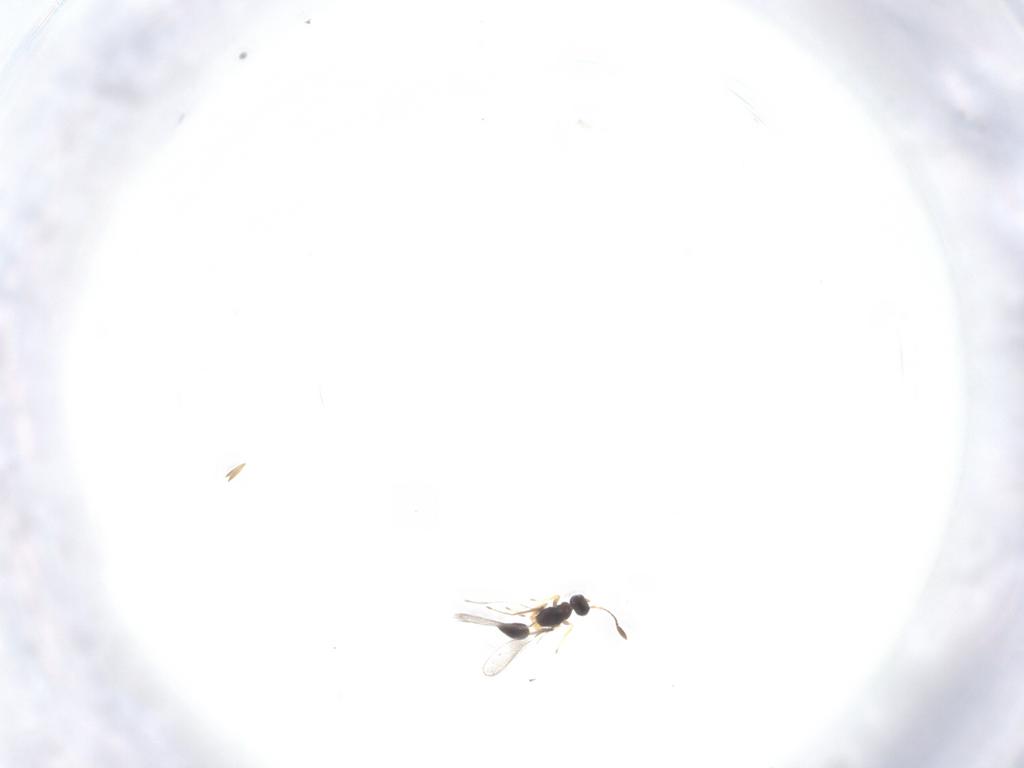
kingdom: Animalia
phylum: Arthropoda
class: Insecta
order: Hymenoptera
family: Mymaridae
